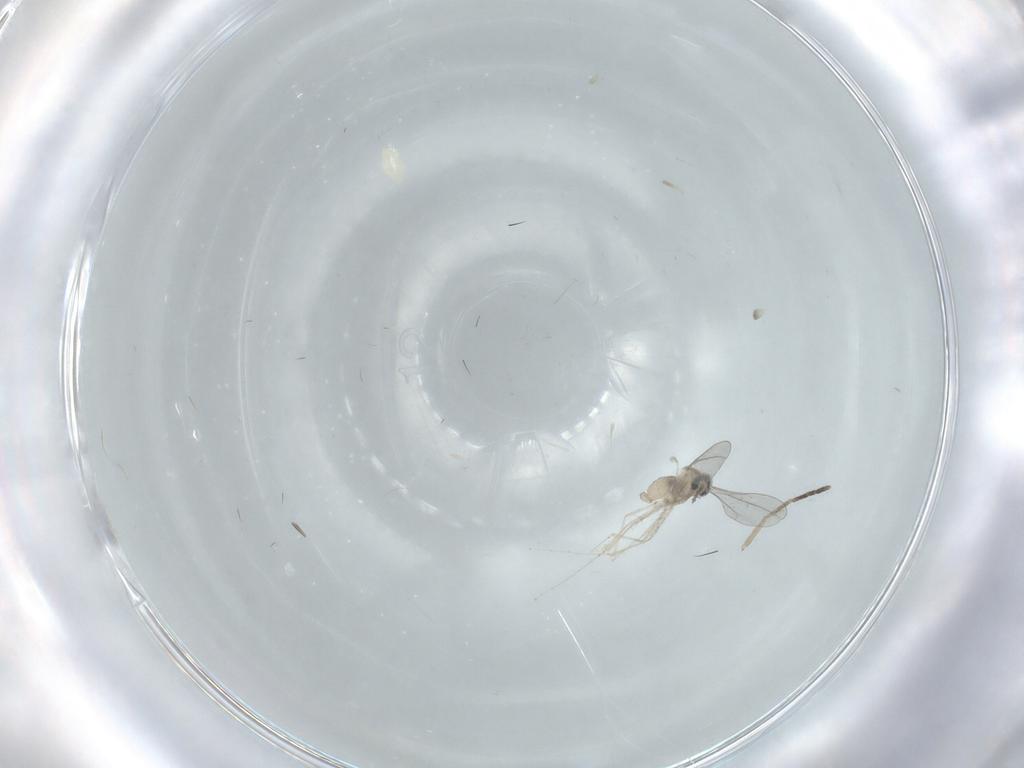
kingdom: Animalia
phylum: Arthropoda
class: Insecta
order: Diptera
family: Cecidomyiidae
